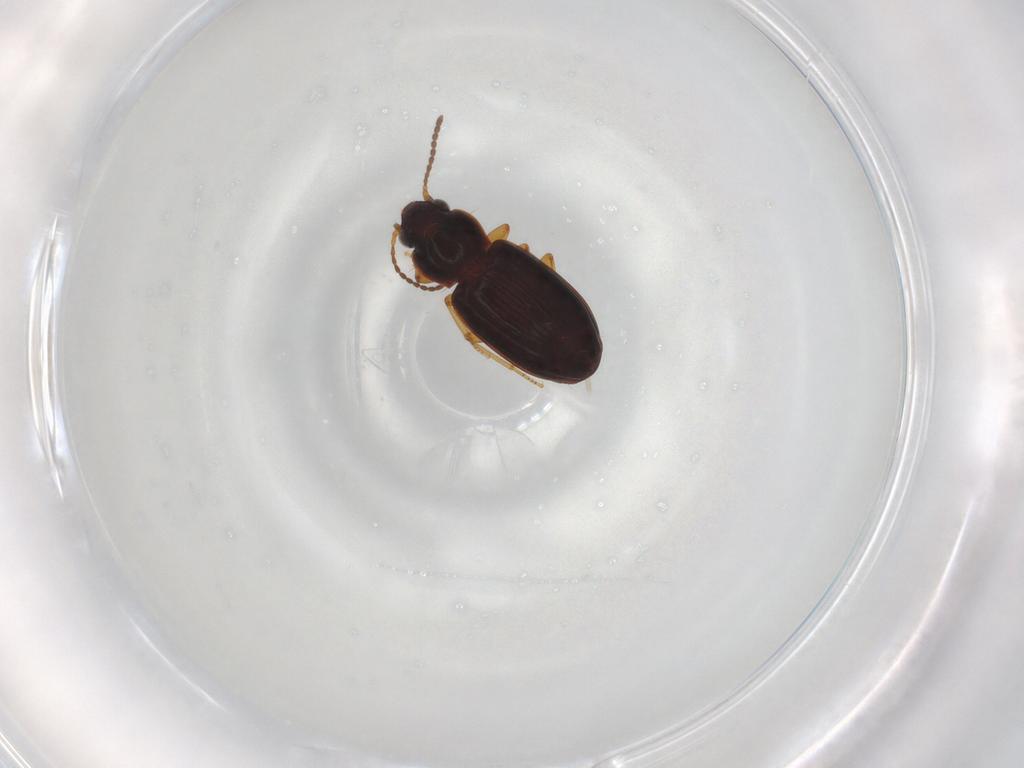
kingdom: Animalia
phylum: Arthropoda
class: Insecta
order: Coleoptera
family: Carabidae
